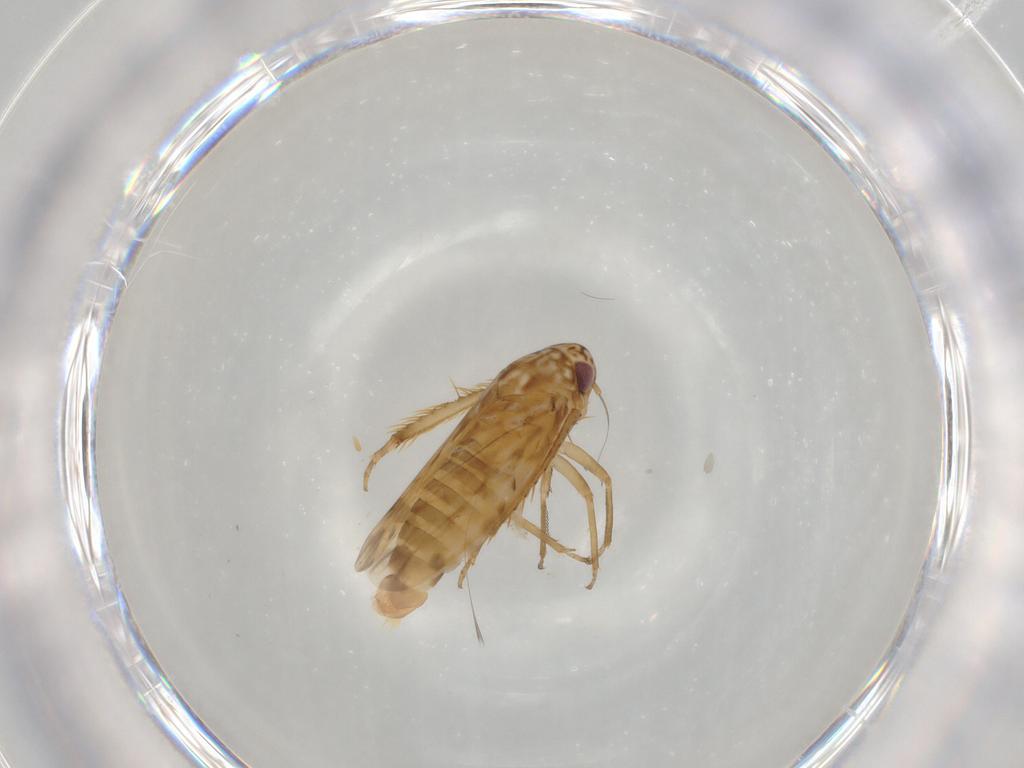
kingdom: Animalia
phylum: Arthropoda
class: Insecta
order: Hemiptera
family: Cicadellidae
